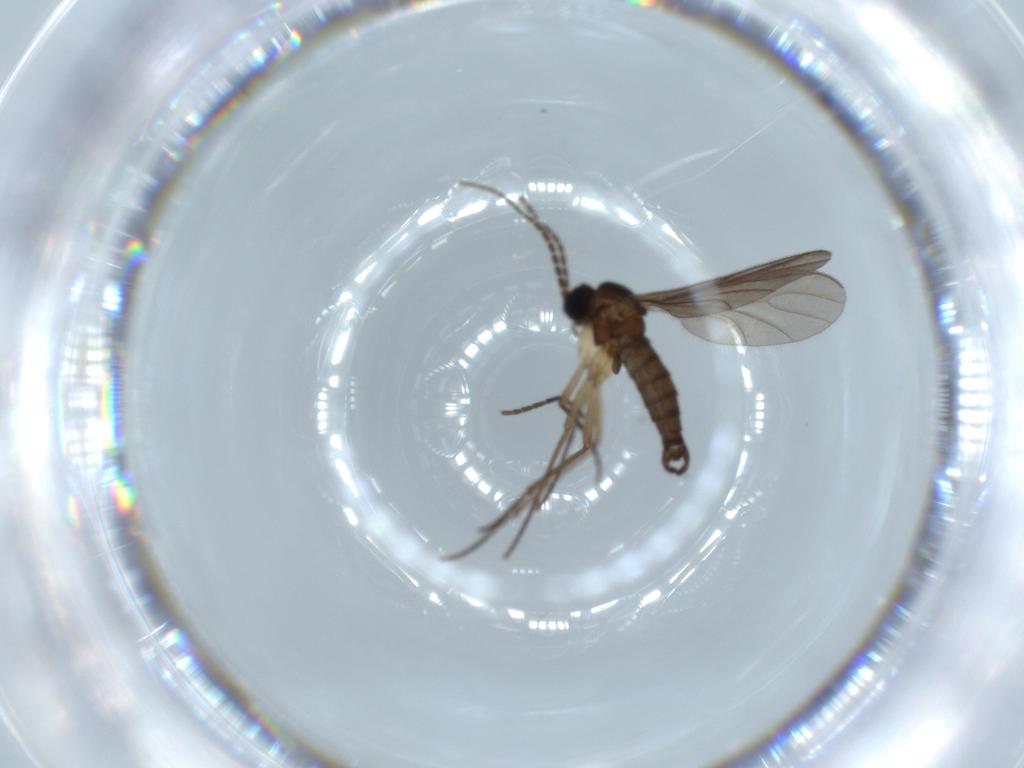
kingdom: Animalia
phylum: Arthropoda
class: Insecta
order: Diptera
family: Sciaridae
